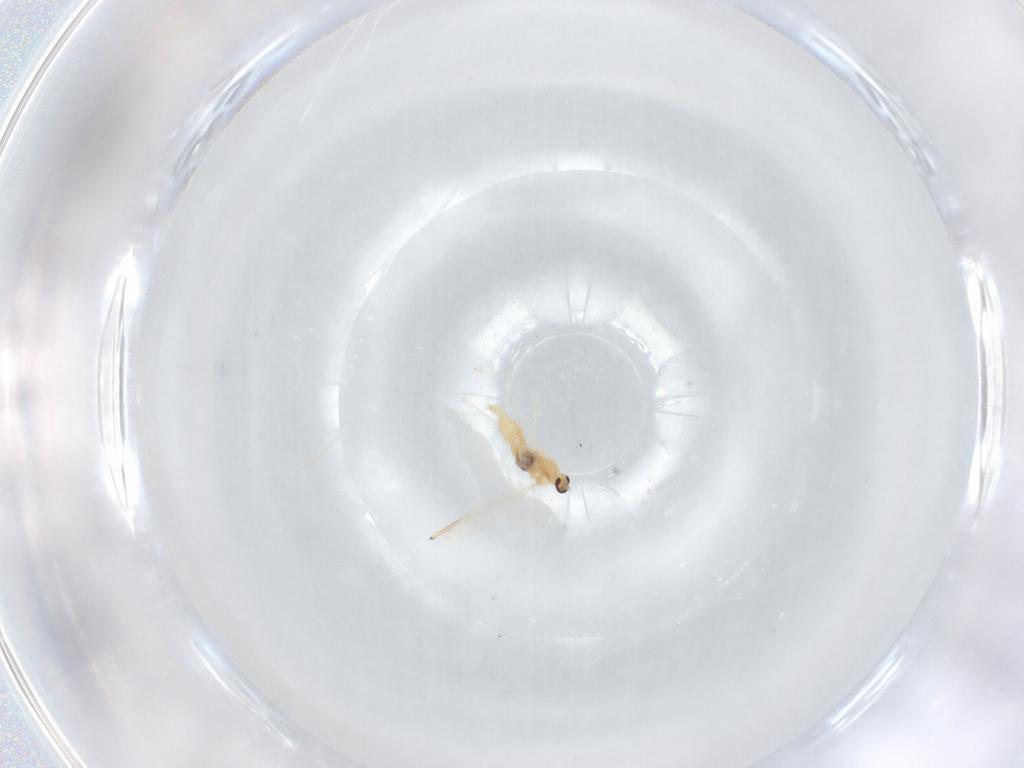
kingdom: Animalia
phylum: Arthropoda
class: Insecta
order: Diptera
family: Cecidomyiidae
